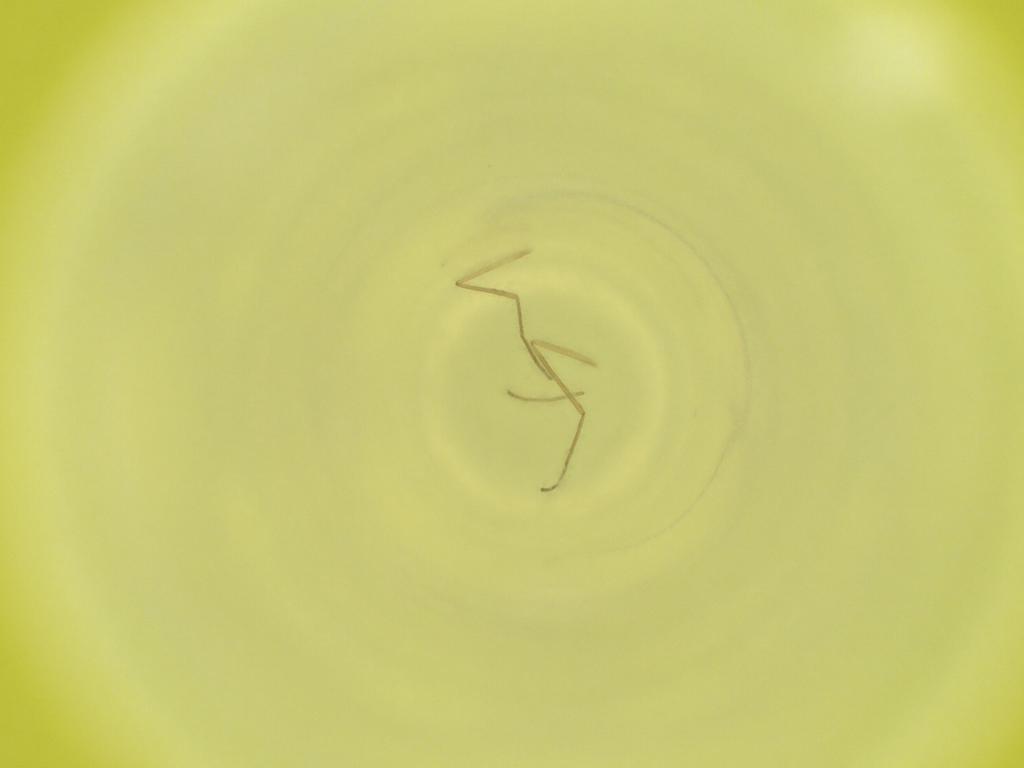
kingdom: Animalia
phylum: Arthropoda
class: Insecta
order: Diptera
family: Cecidomyiidae
